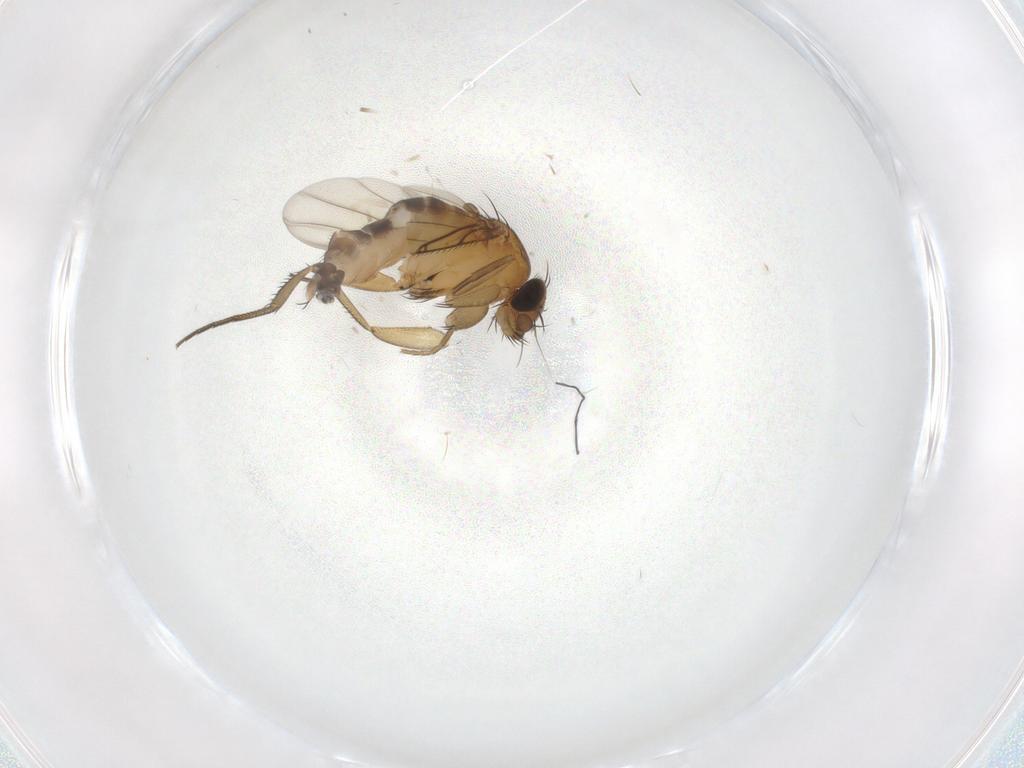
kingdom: Animalia
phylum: Arthropoda
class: Insecta
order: Diptera
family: Phoridae
